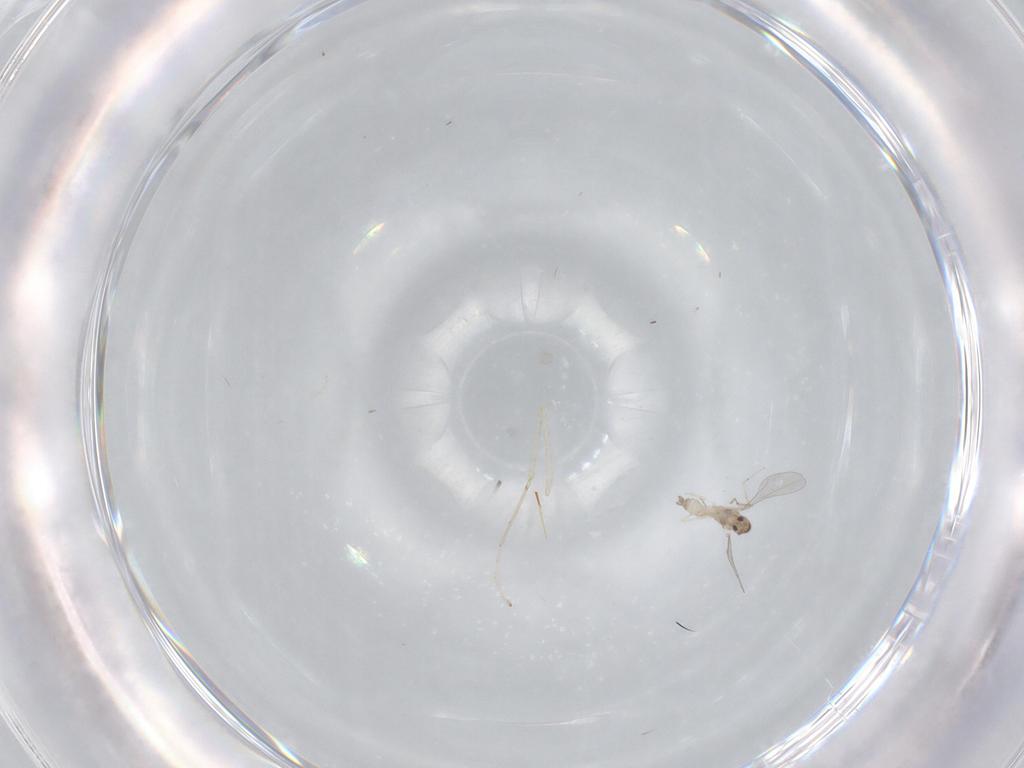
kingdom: Animalia
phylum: Arthropoda
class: Insecta
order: Diptera
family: Cecidomyiidae
